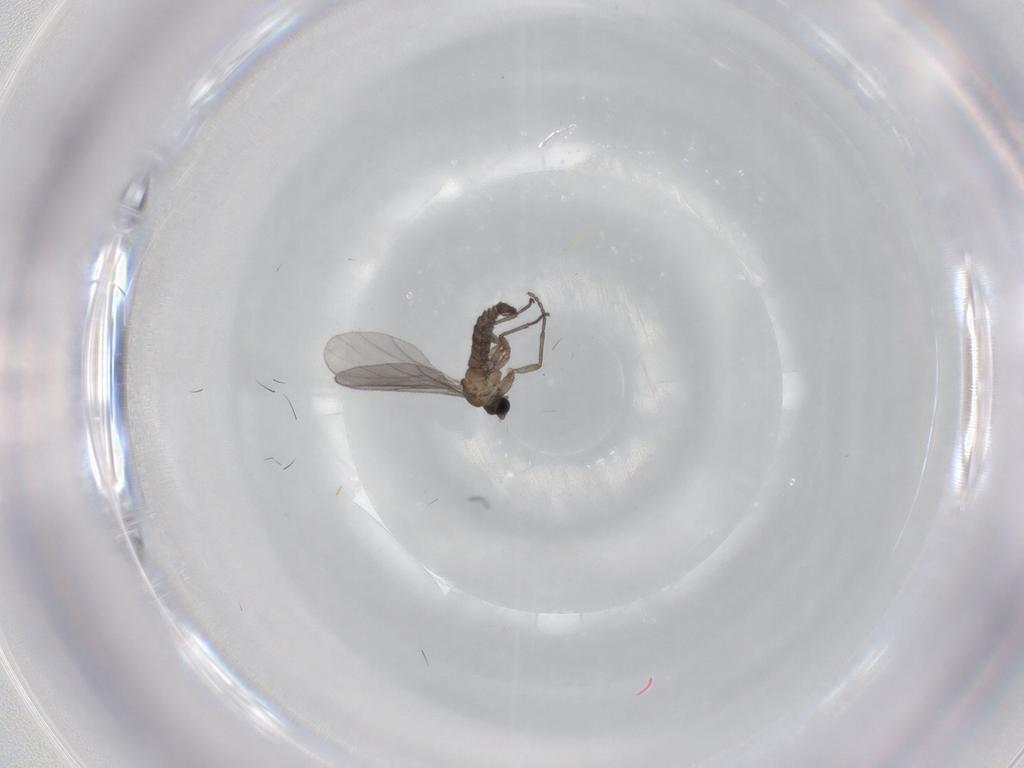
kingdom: Animalia
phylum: Arthropoda
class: Insecta
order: Diptera
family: Sciaridae
